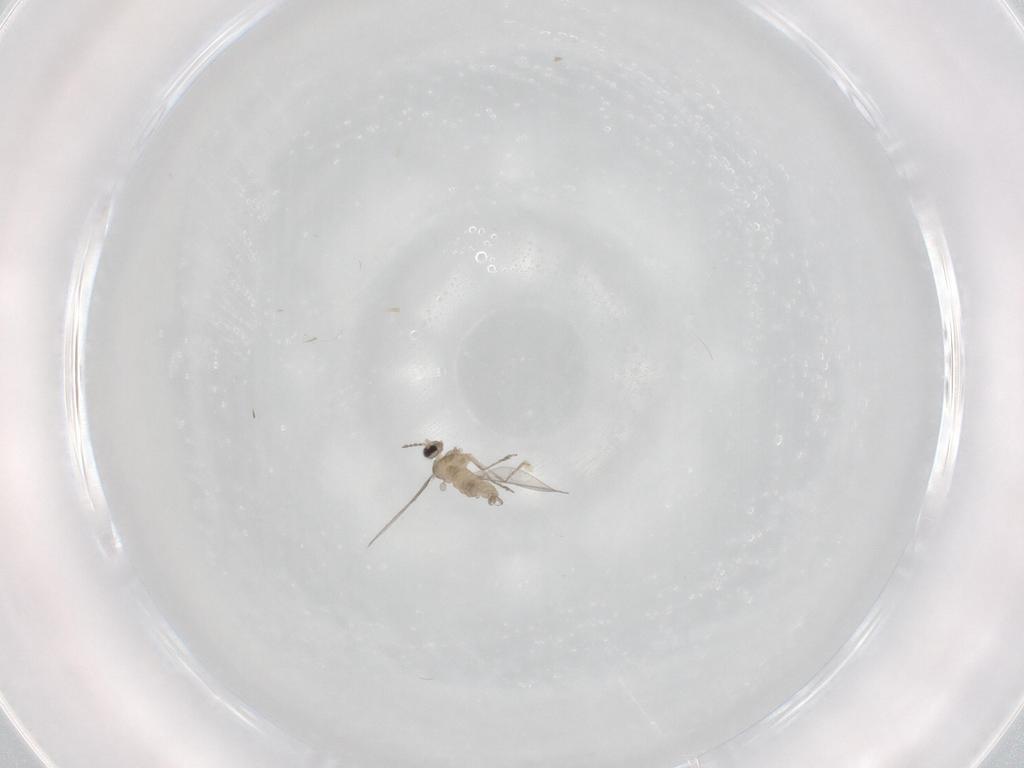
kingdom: Animalia
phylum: Arthropoda
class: Insecta
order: Diptera
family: Cecidomyiidae
